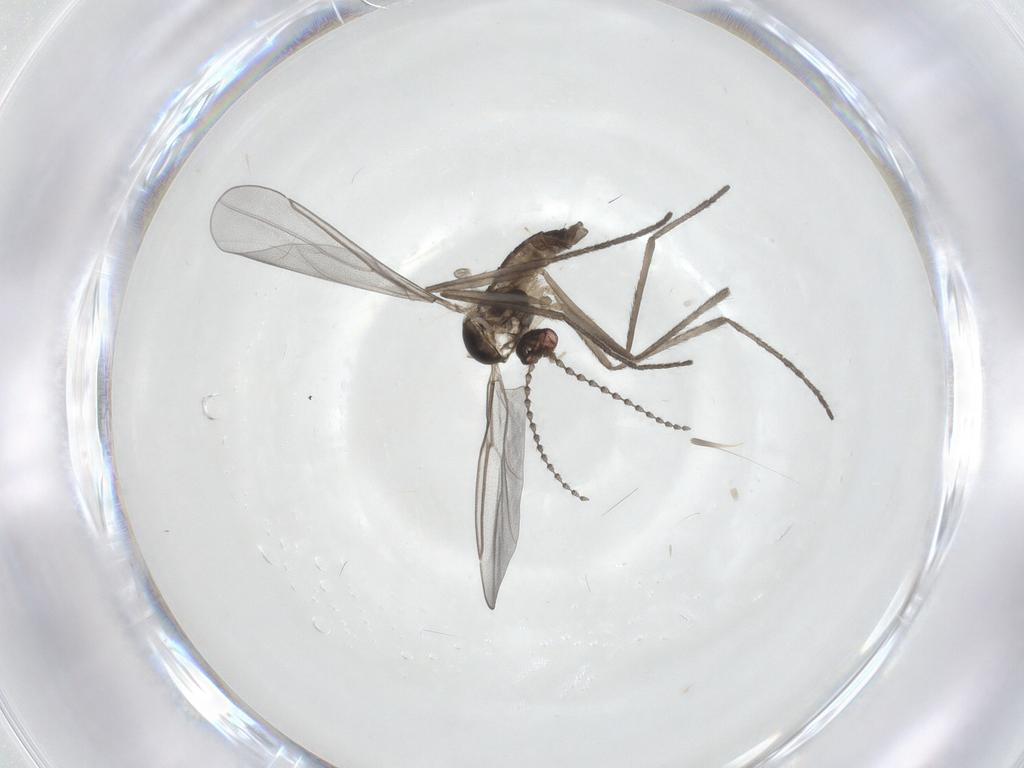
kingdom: Animalia
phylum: Arthropoda
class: Insecta
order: Diptera
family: Cecidomyiidae
